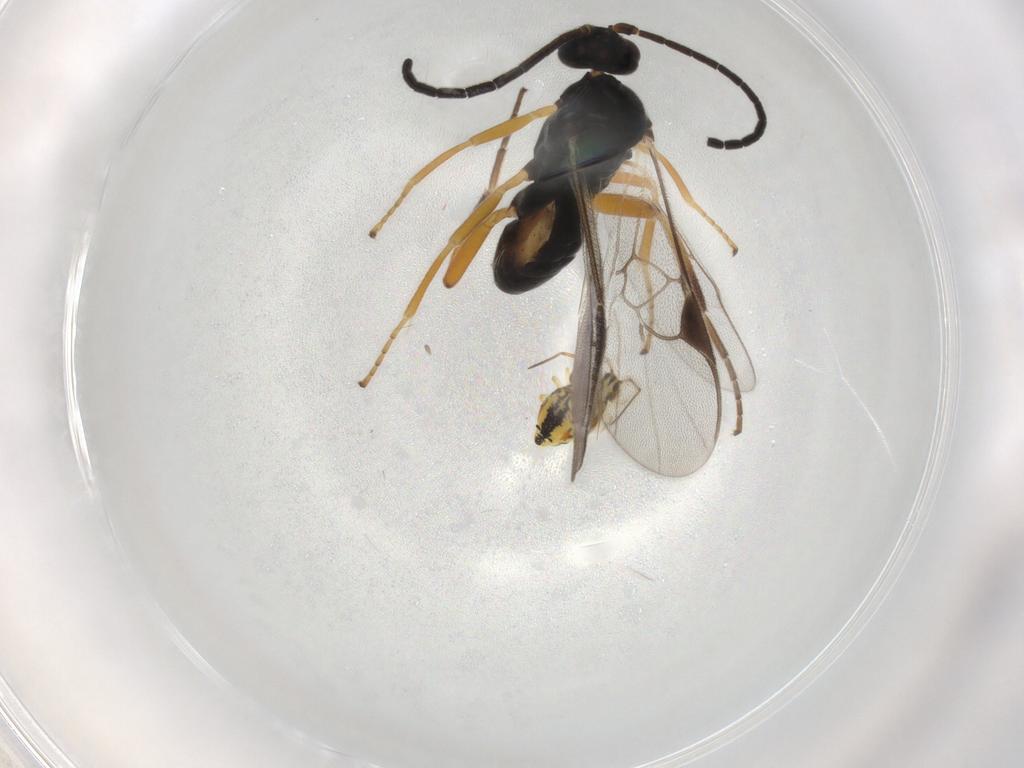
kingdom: Animalia
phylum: Arthropoda
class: Insecta
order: Hymenoptera
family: Braconidae
